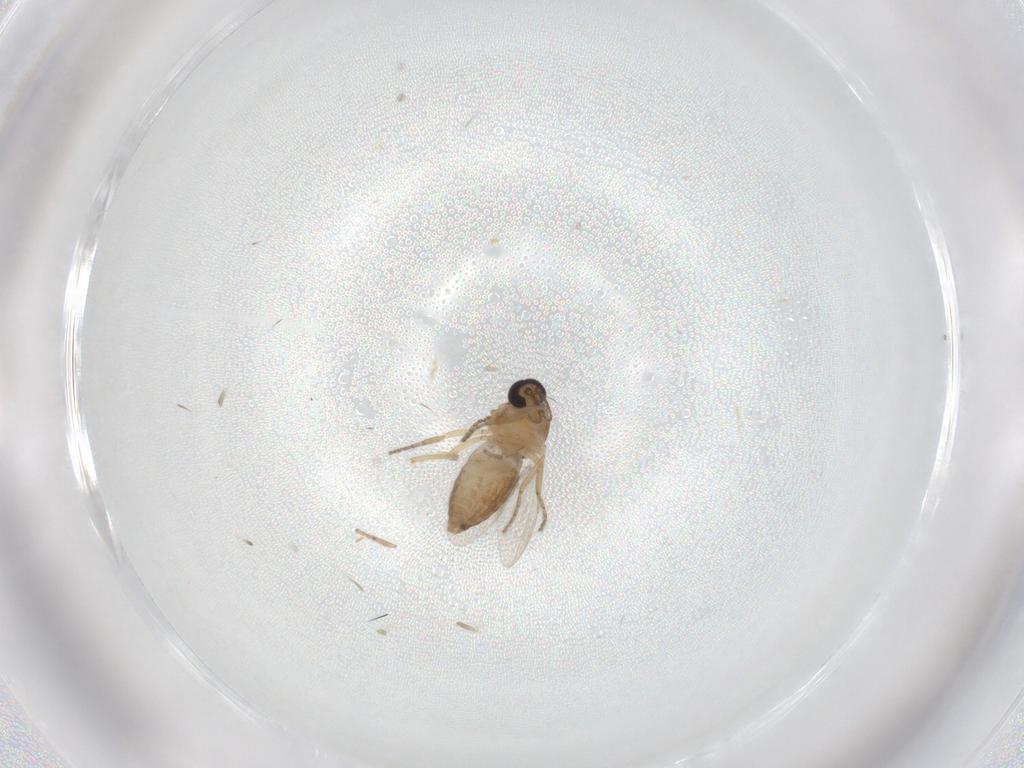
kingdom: Animalia
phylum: Arthropoda
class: Insecta
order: Diptera
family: Ceratopogonidae
